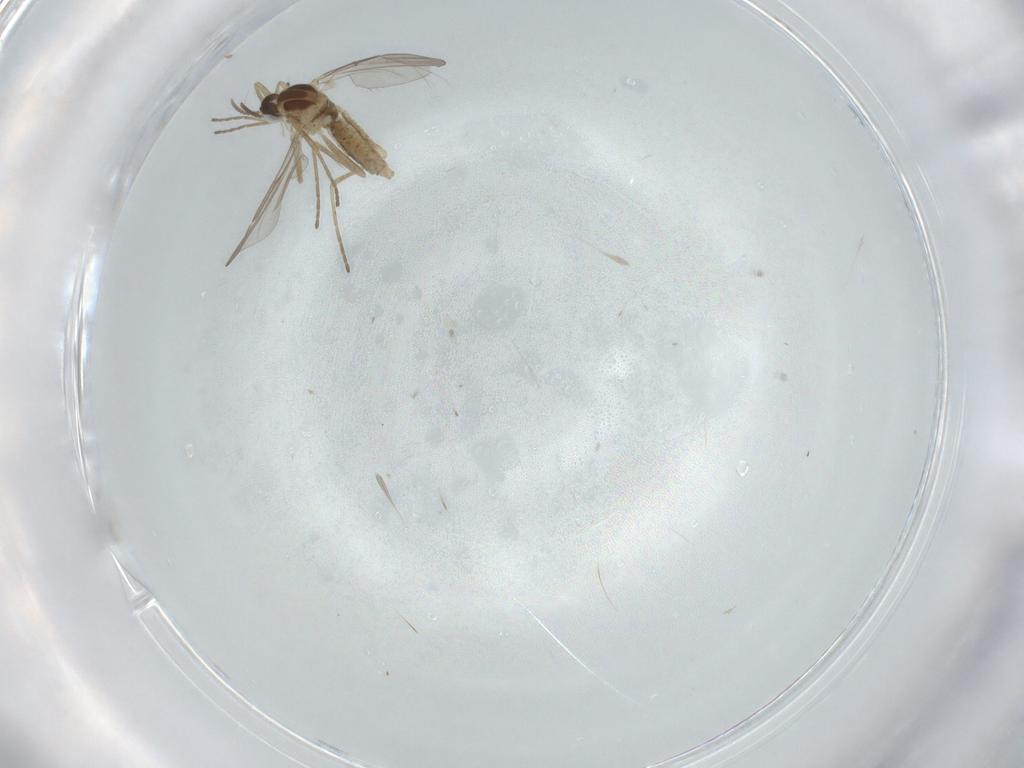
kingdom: Animalia
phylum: Arthropoda
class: Insecta
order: Diptera
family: Cecidomyiidae
